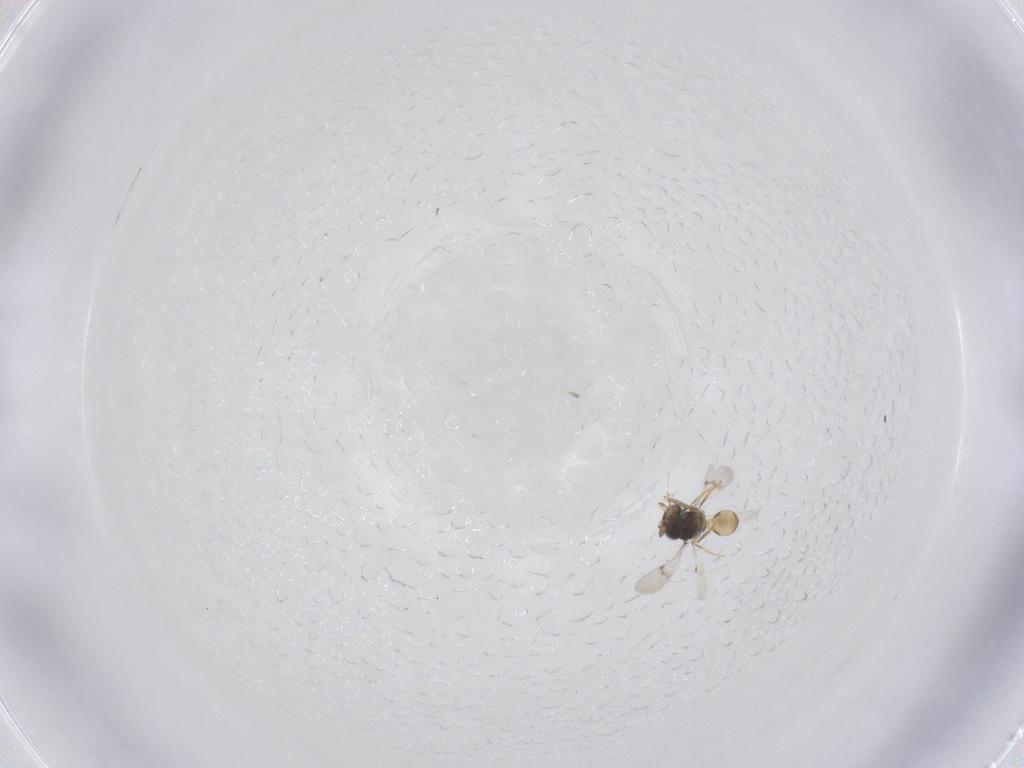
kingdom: Animalia
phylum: Arthropoda
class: Insecta
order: Hymenoptera
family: Scelionidae
